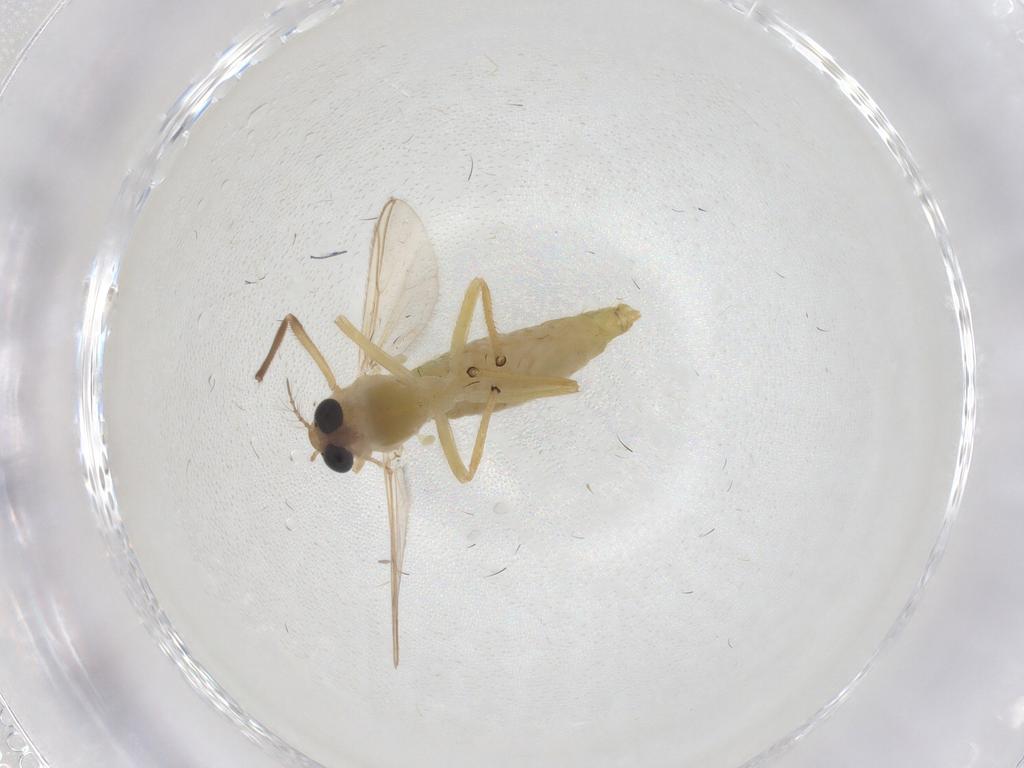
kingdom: Animalia
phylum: Arthropoda
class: Insecta
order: Diptera
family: Chironomidae
